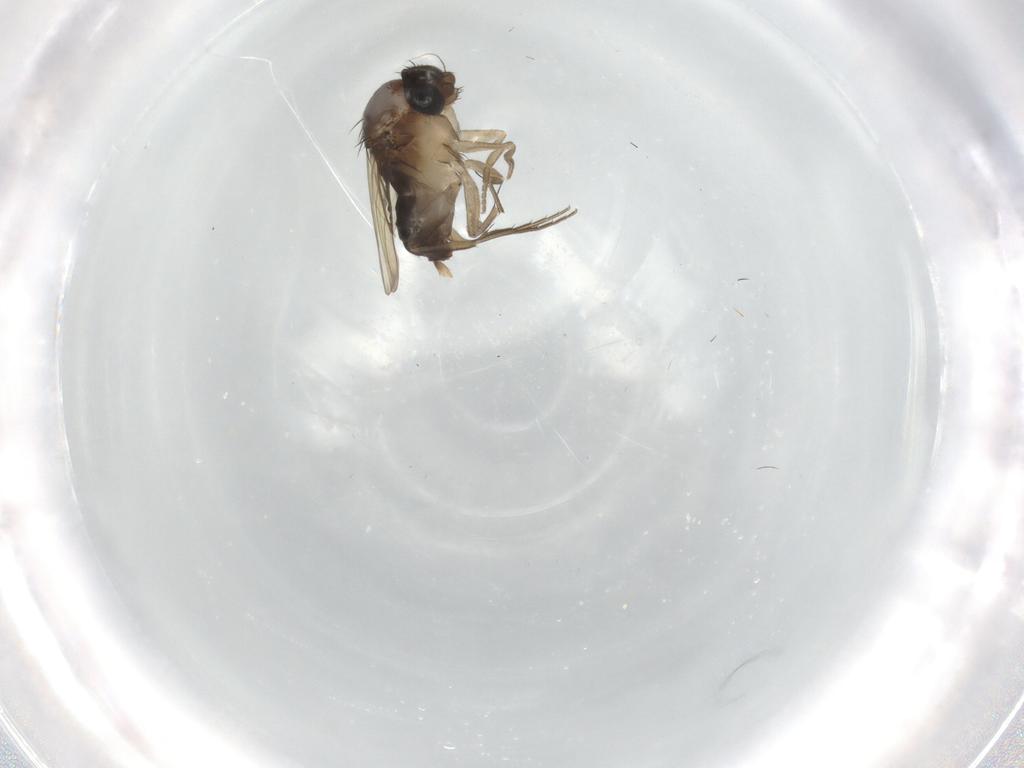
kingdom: Animalia
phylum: Arthropoda
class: Insecta
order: Diptera
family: Phoridae
